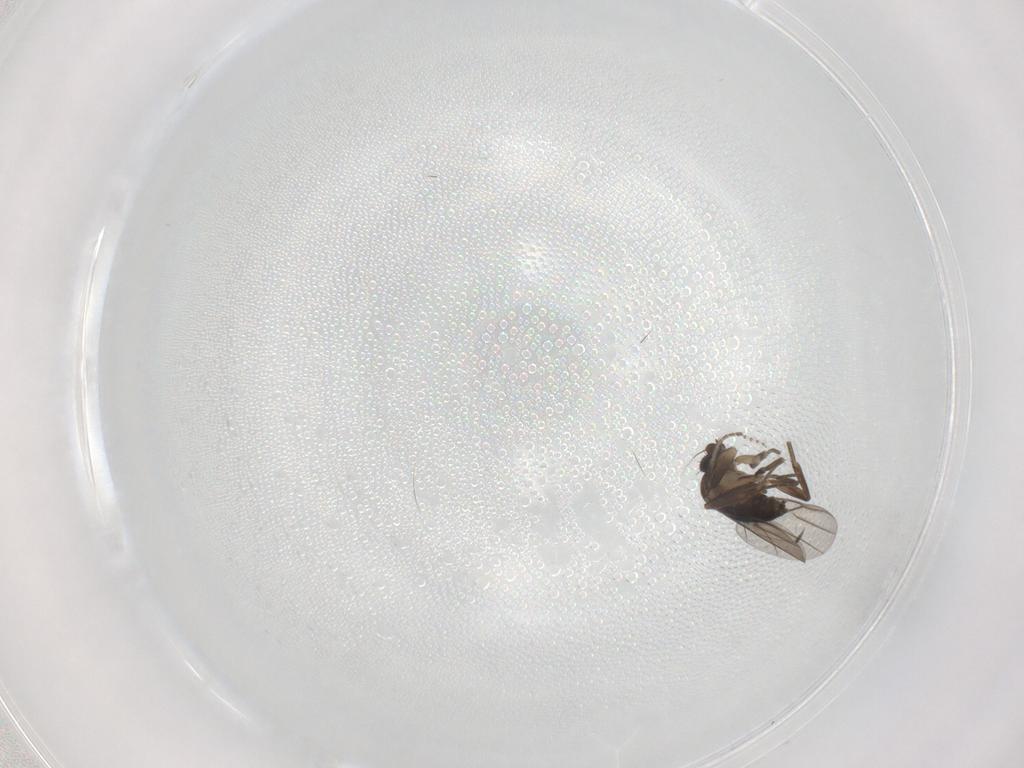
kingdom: Animalia
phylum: Arthropoda
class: Insecta
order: Diptera
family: Cecidomyiidae
